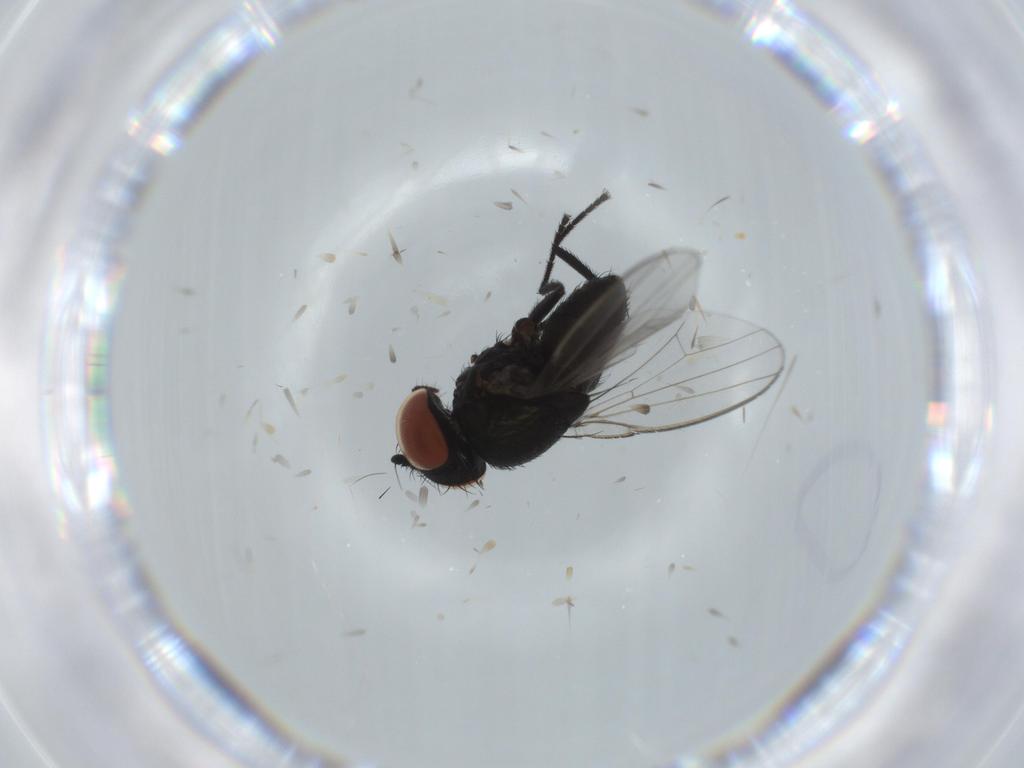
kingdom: Animalia
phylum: Arthropoda
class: Insecta
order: Diptera
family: Milichiidae
